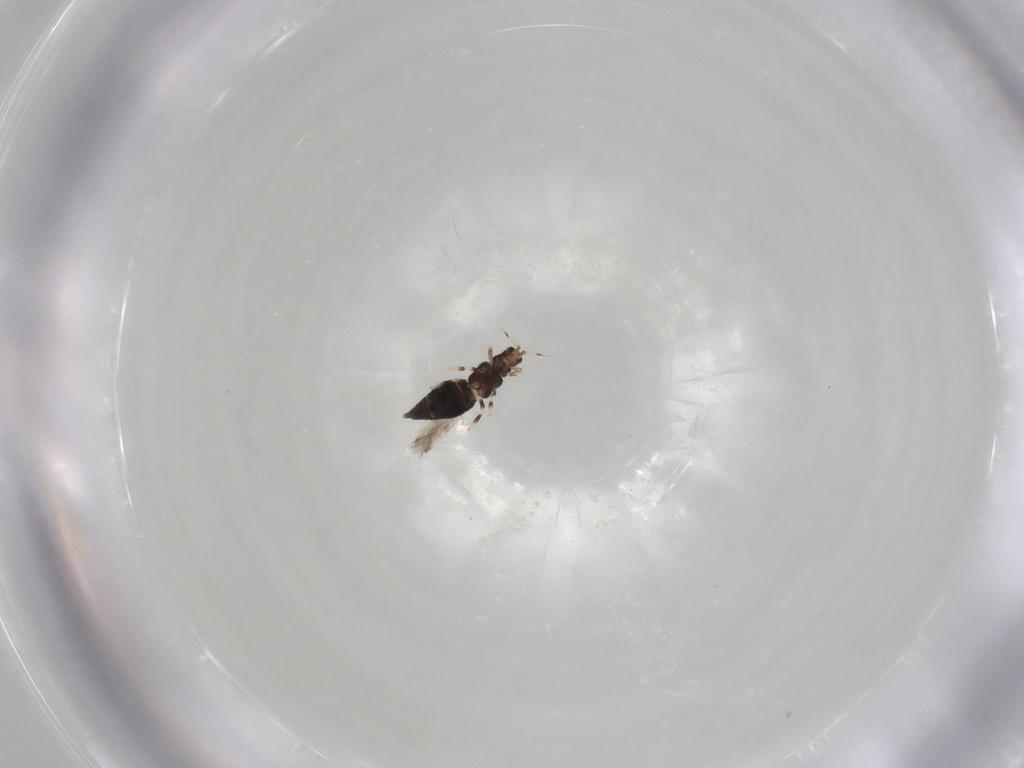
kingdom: Animalia
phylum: Arthropoda
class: Insecta
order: Thysanoptera
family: Thripidae
